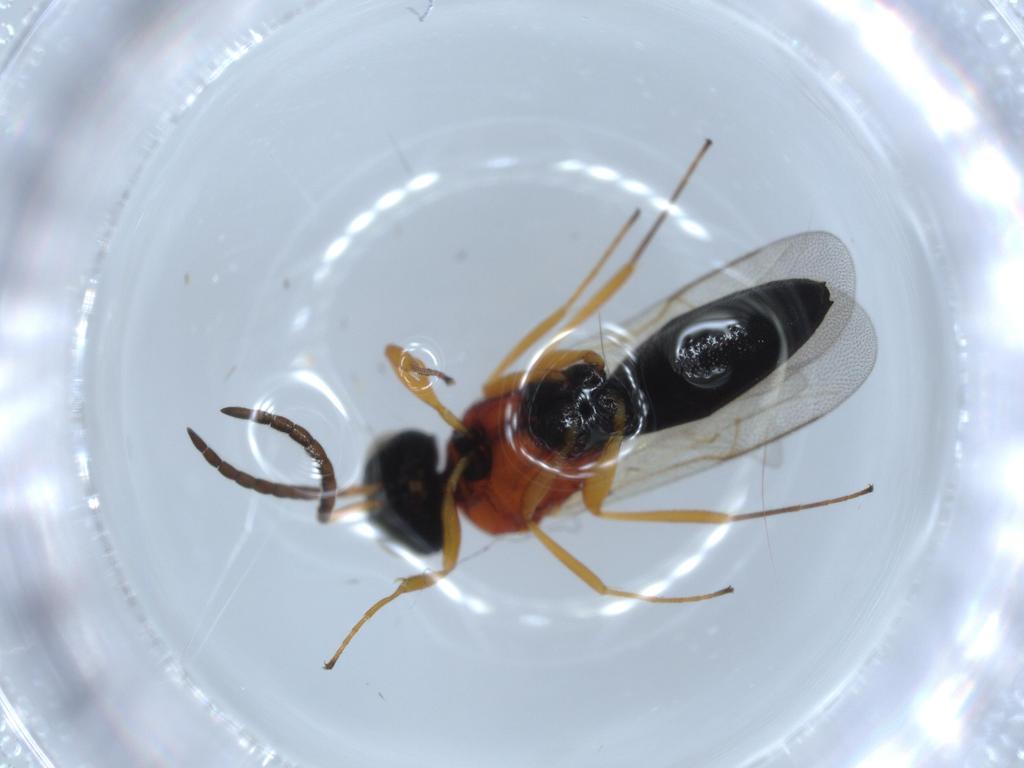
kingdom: Animalia
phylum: Arthropoda
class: Insecta
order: Hymenoptera
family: Scelionidae
